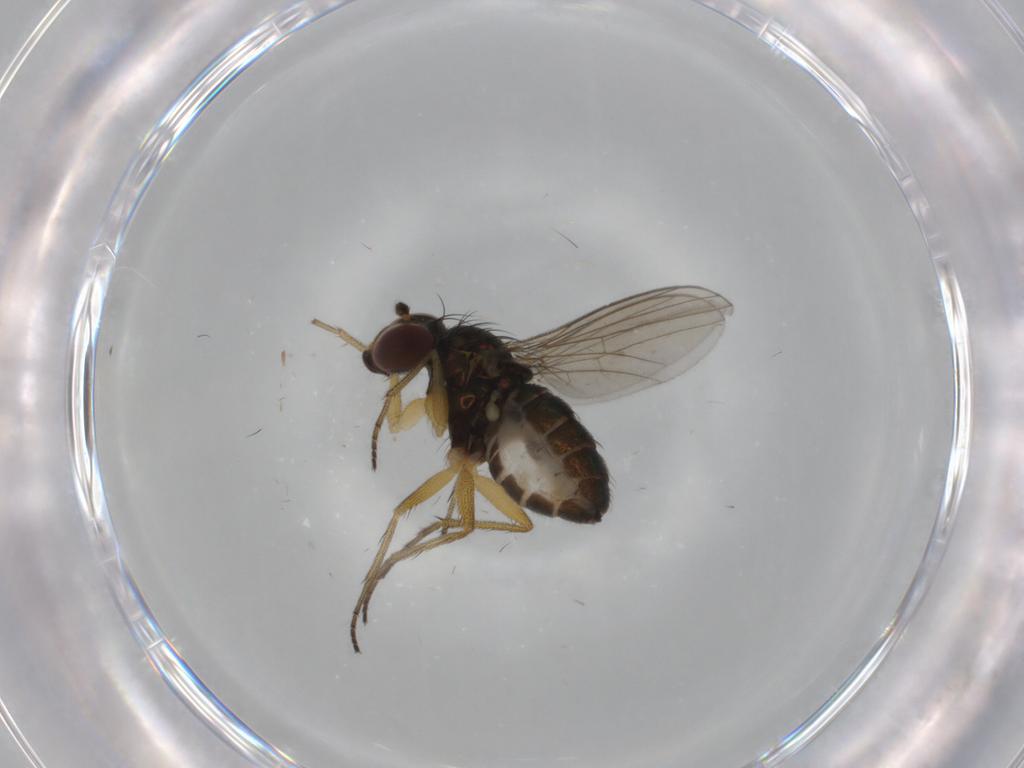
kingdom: Animalia
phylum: Arthropoda
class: Insecta
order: Diptera
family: Dolichopodidae
